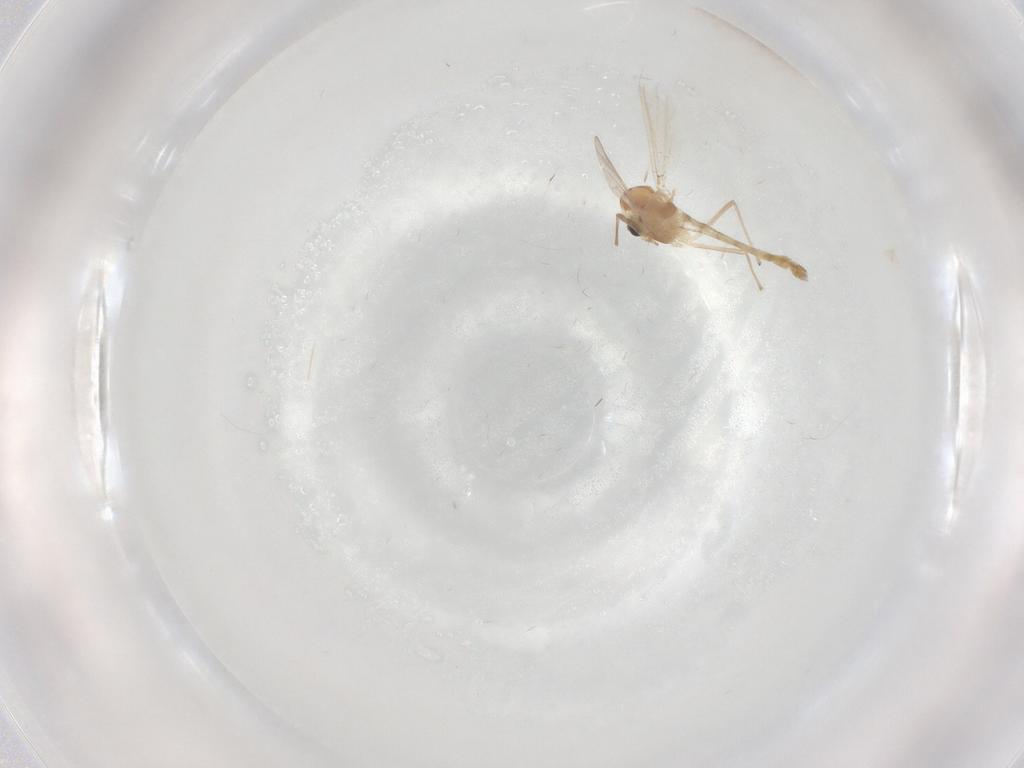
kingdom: Animalia
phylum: Arthropoda
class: Insecta
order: Diptera
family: Chironomidae
